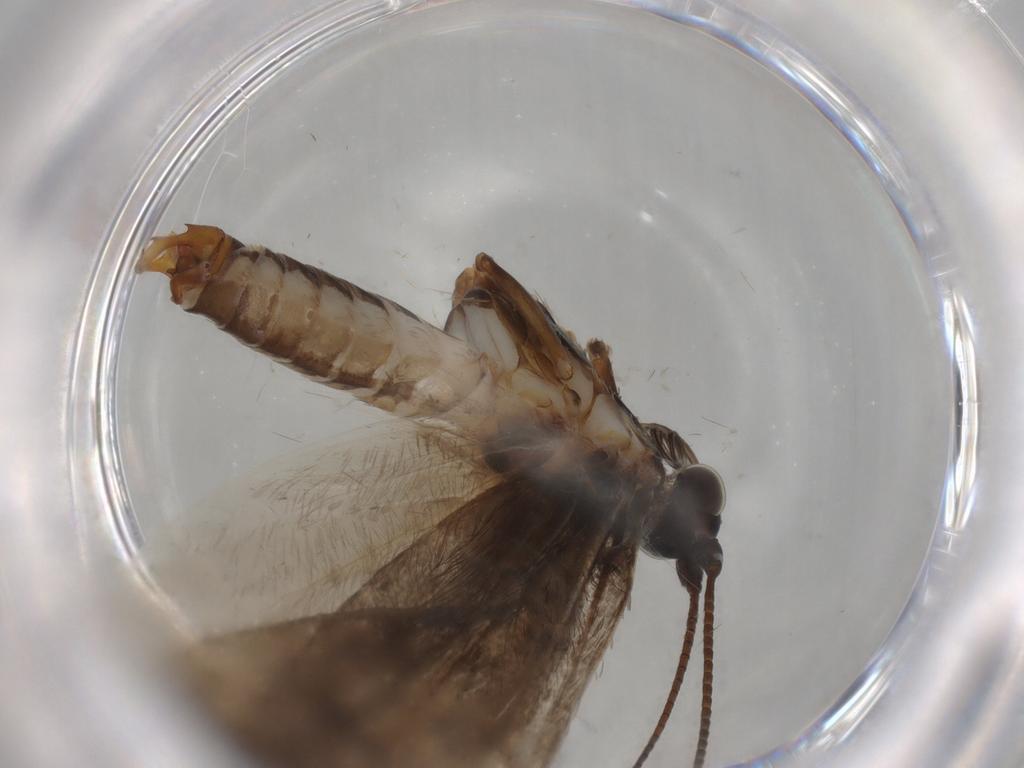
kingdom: Animalia
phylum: Arthropoda
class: Insecta
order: Lepidoptera
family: Adelidae
